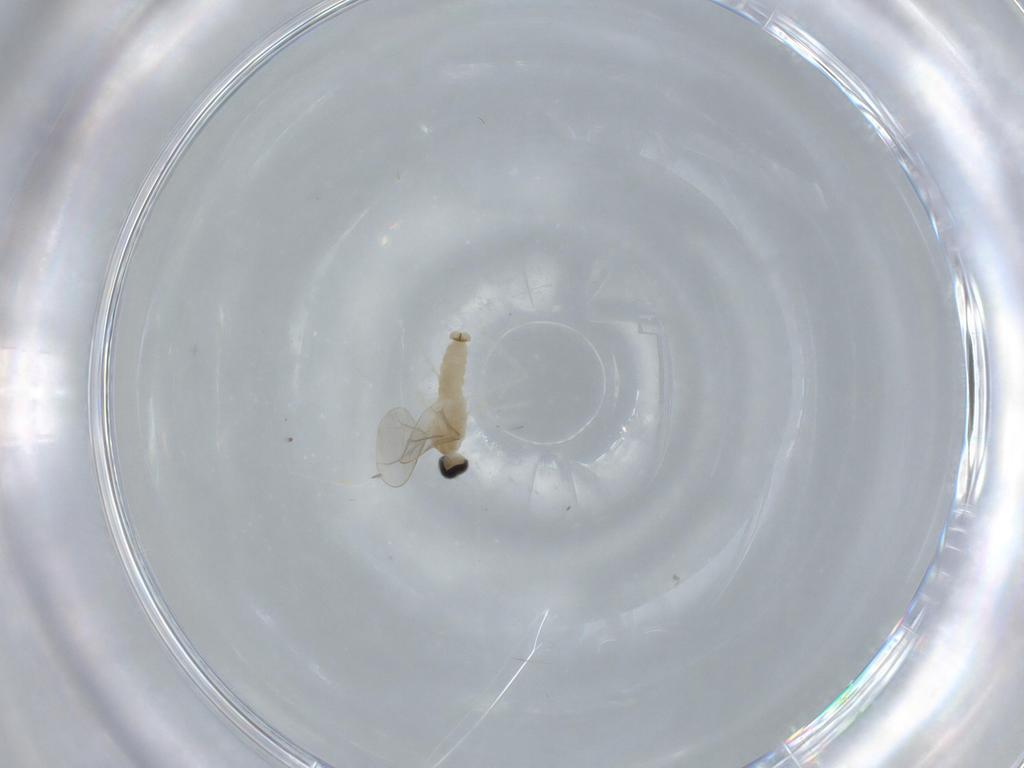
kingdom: Animalia
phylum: Arthropoda
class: Insecta
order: Diptera
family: Cecidomyiidae
